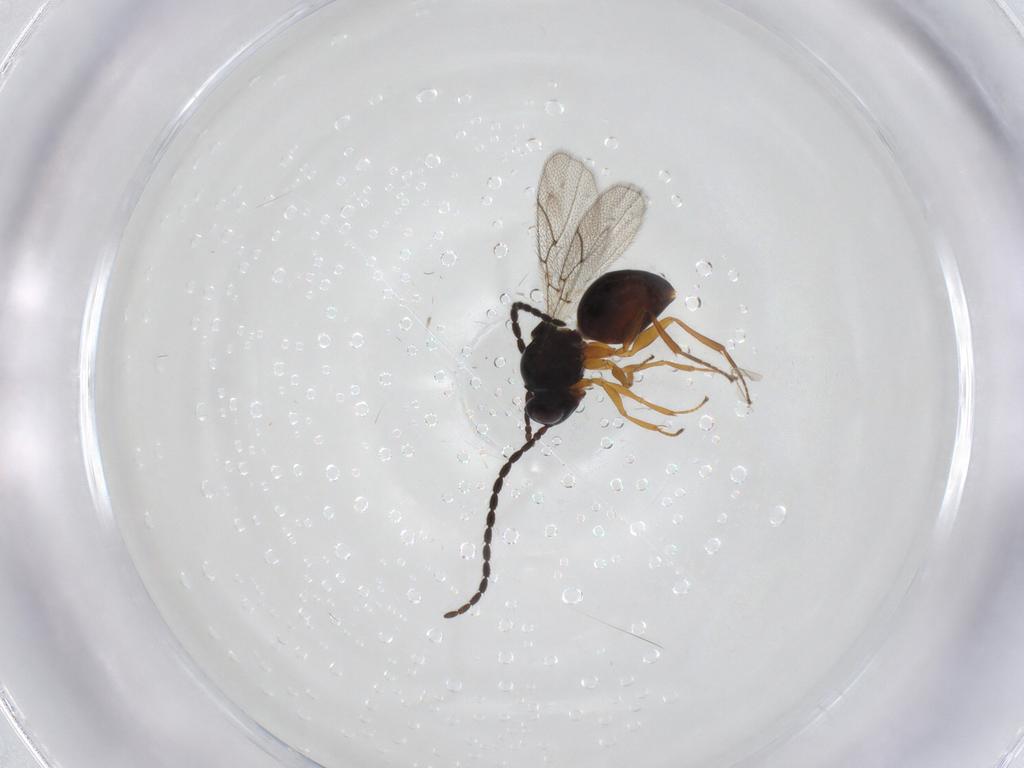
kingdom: Animalia
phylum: Arthropoda
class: Insecta
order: Hymenoptera
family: Figitidae
